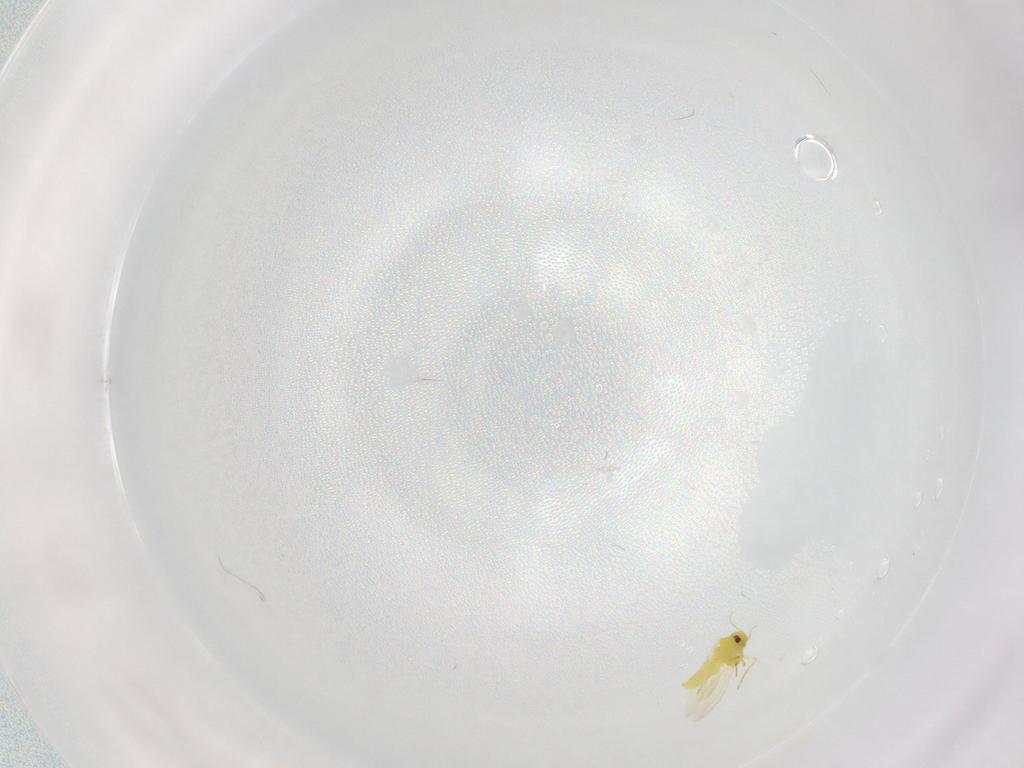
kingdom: Animalia
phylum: Arthropoda
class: Insecta
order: Hemiptera
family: Aleyrodidae
